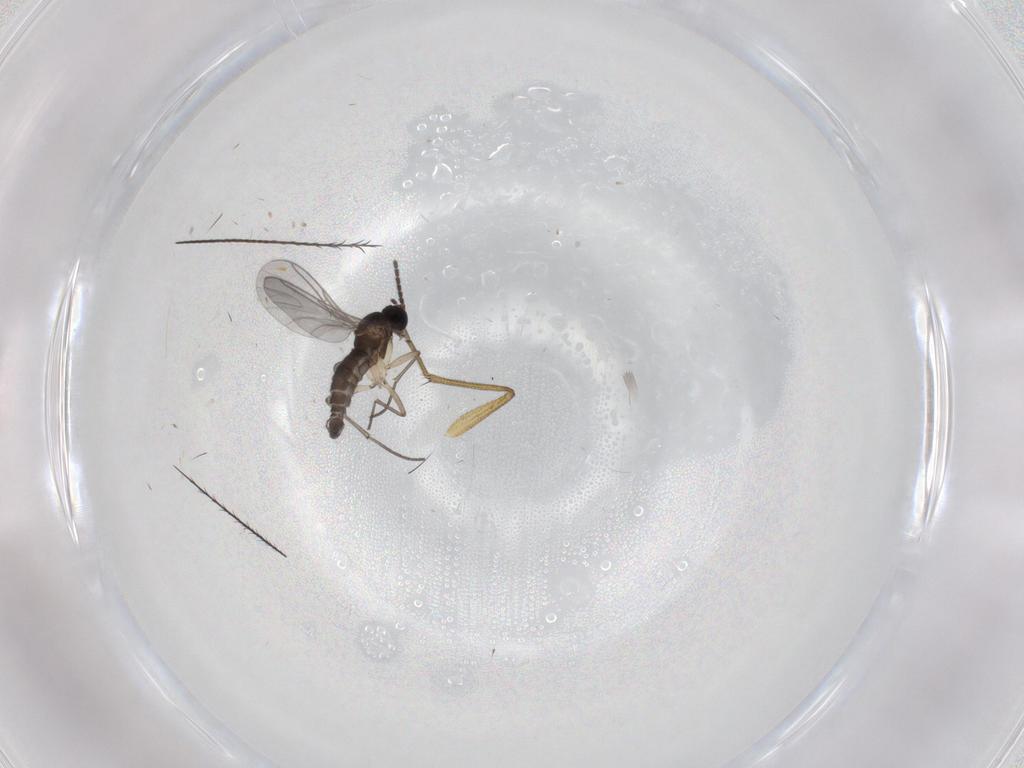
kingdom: Animalia
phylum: Arthropoda
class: Insecta
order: Diptera
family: Sciaridae
